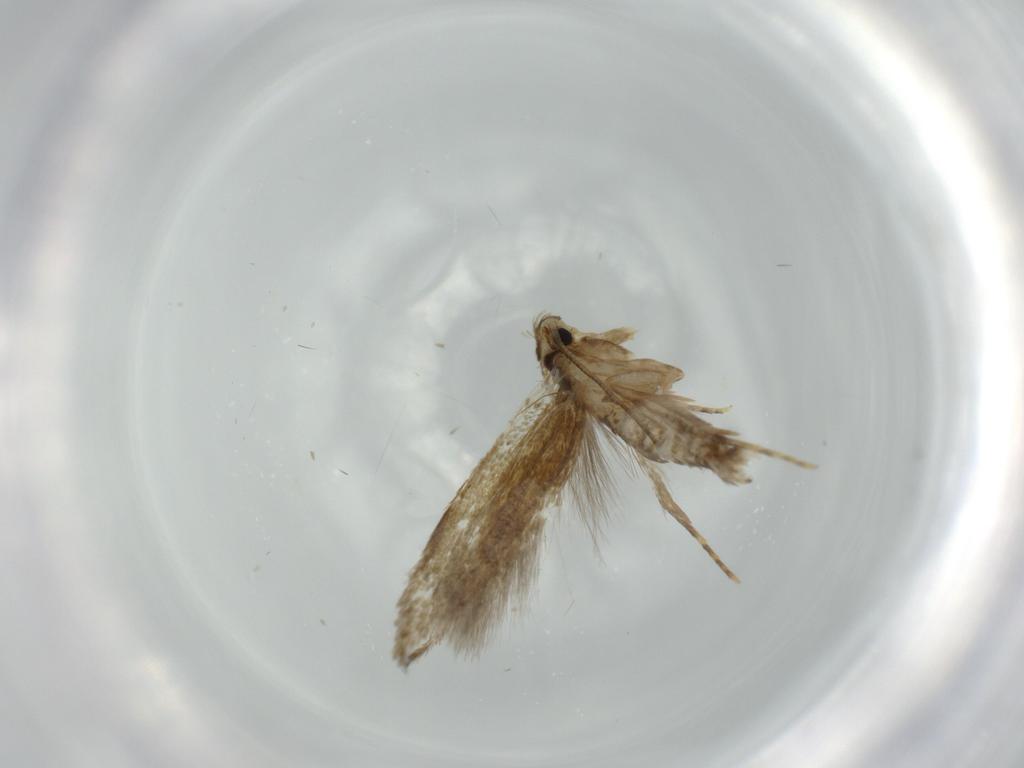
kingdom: Animalia
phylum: Arthropoda
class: Insecta
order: Lepidoptera
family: Tineidae
